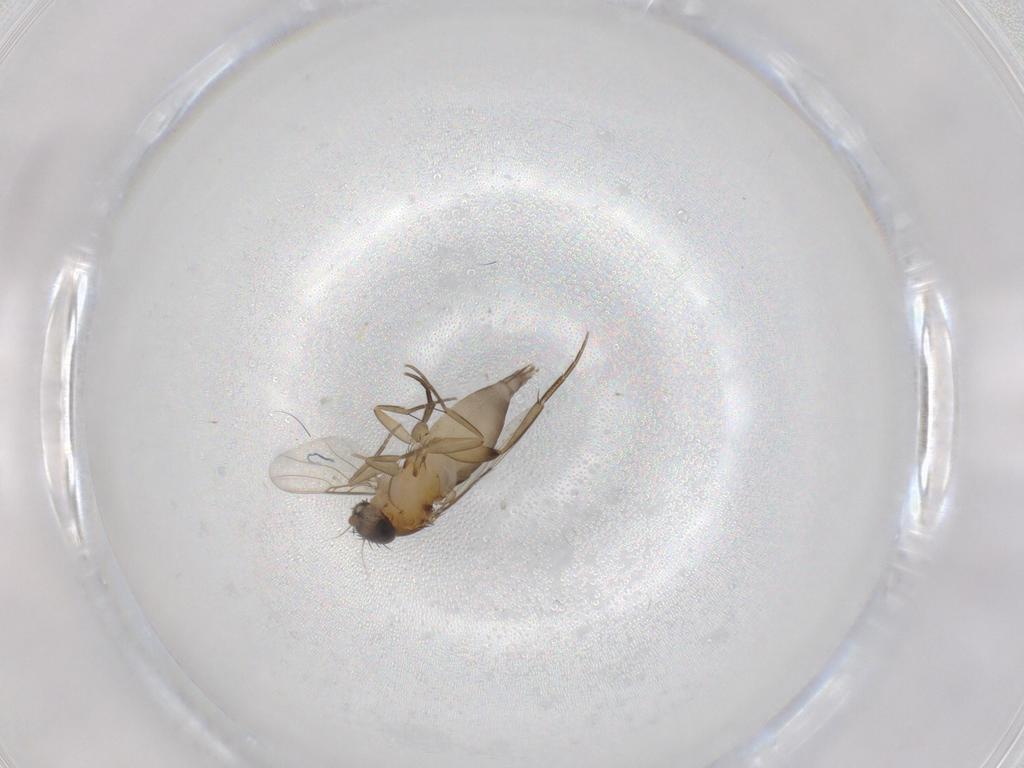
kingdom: Animalia
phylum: Arthropoda
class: Insecta
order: Diptera
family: Phoridae
